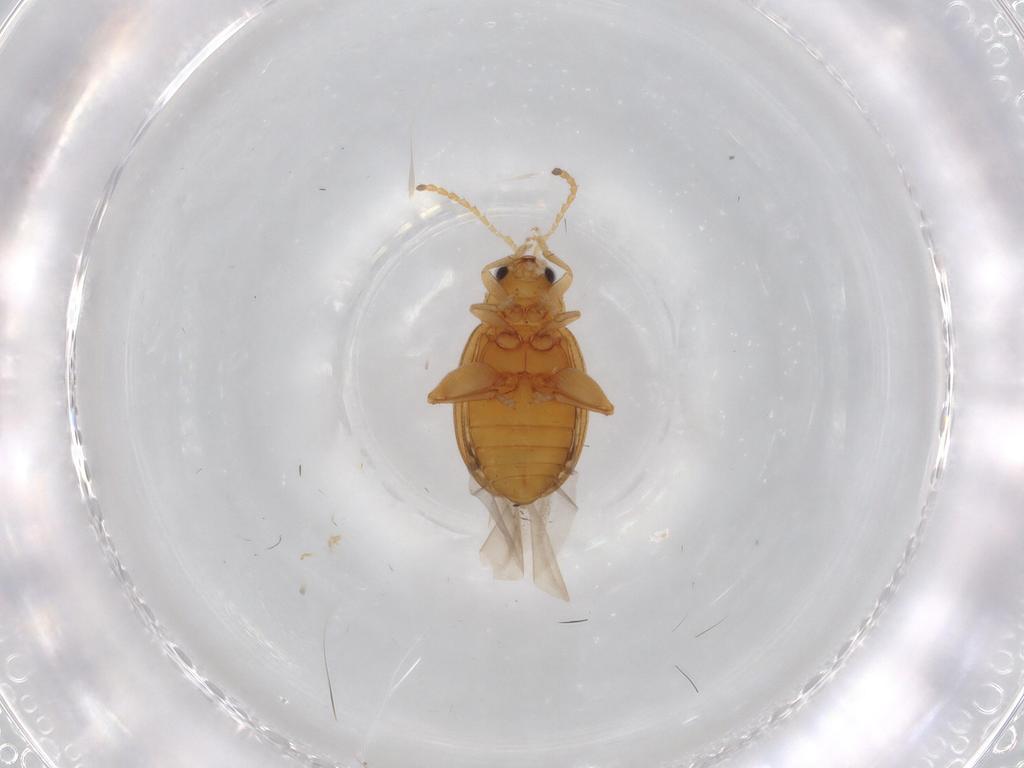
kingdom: Animalia
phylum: Arthropoda
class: Insecta
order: Coleoptera
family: Chrysomelidae
